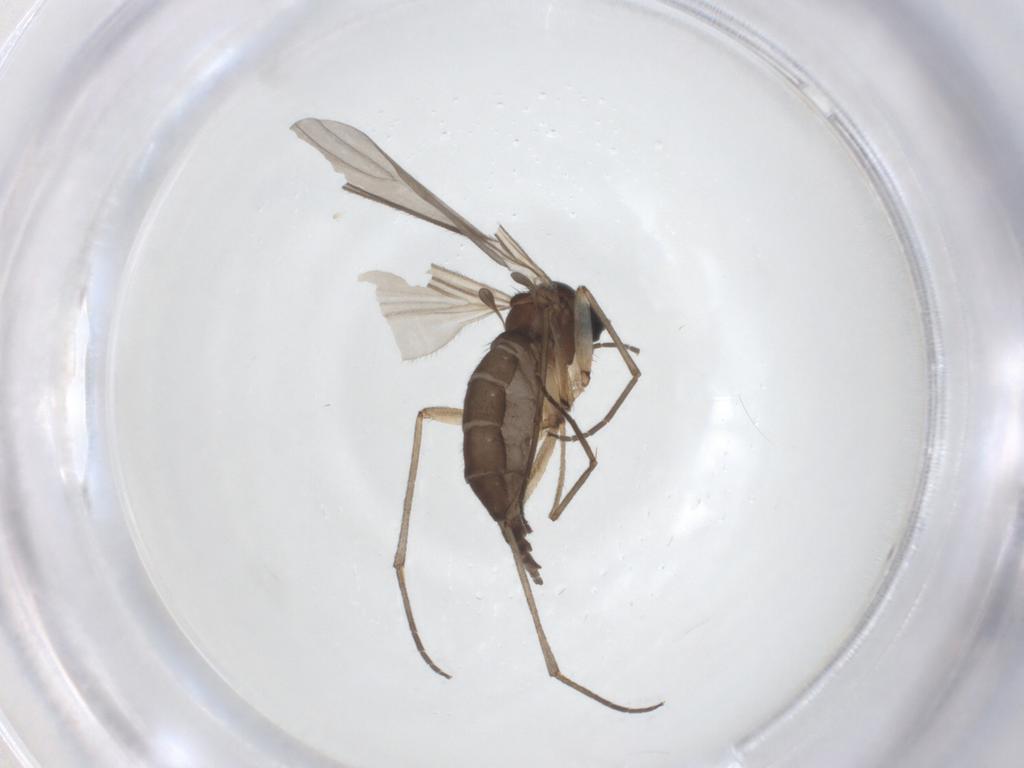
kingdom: Animalia
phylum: Arthropoda
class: Insecta
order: Diptera
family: Sciaridae
